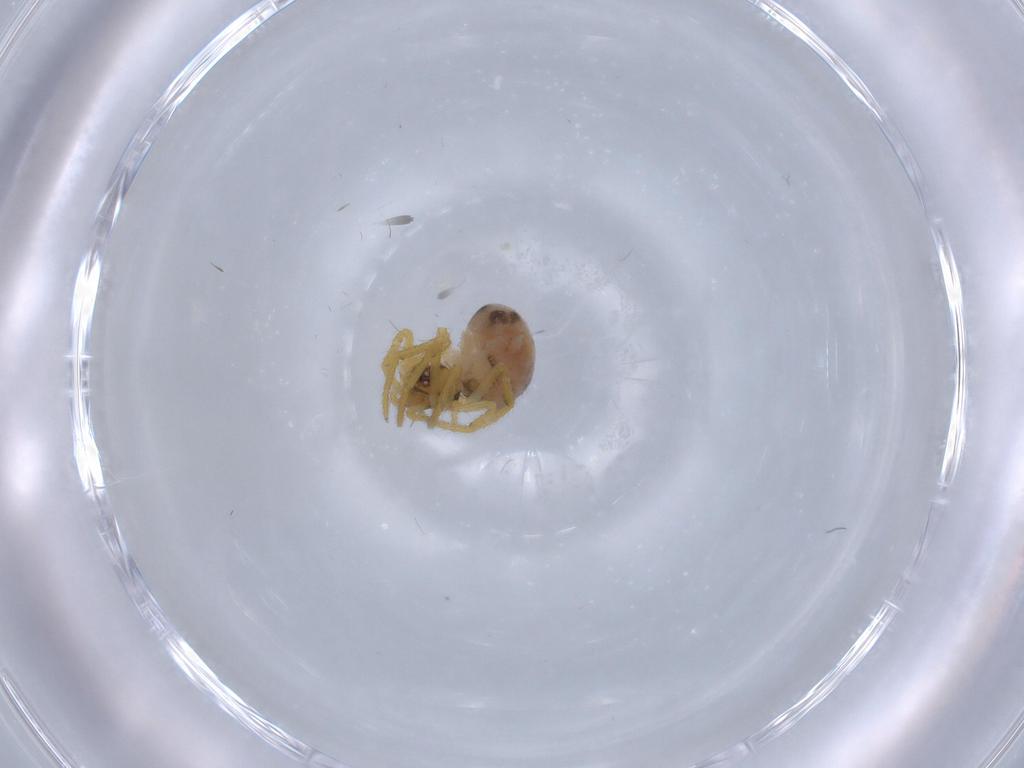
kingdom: Animalia
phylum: Arthropoda
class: Arachnida
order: Araneae
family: Theridiidae
